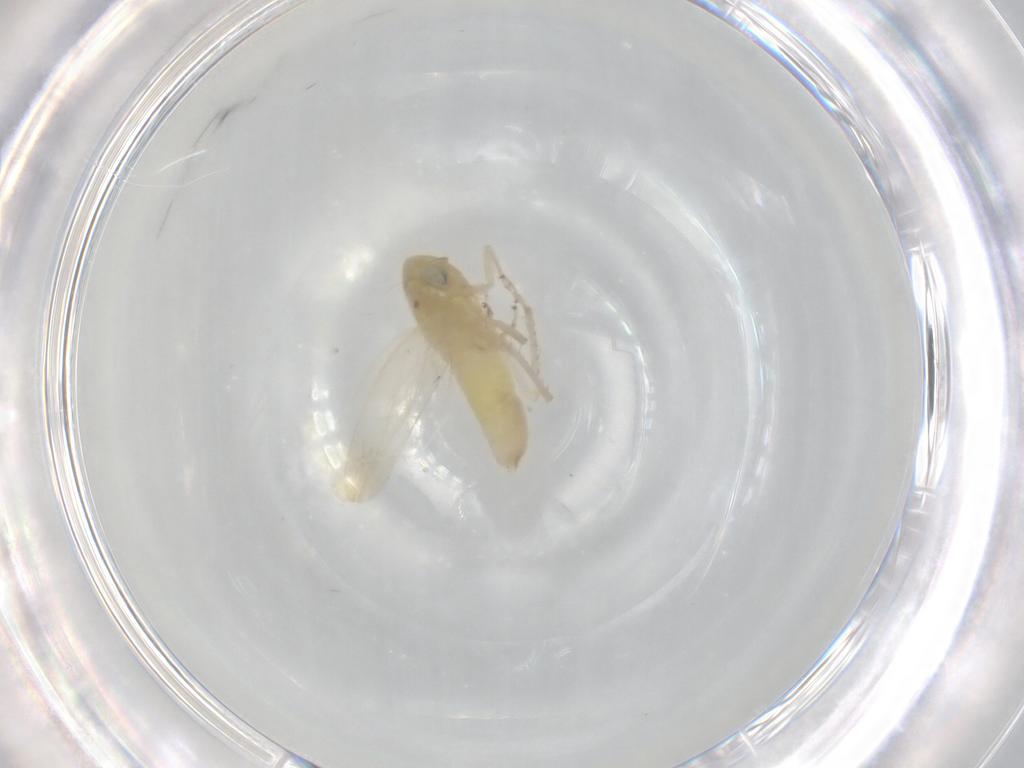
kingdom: Animalia
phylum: Arthropoda
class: Insecta
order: Hemiptera
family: Cicadellidae
